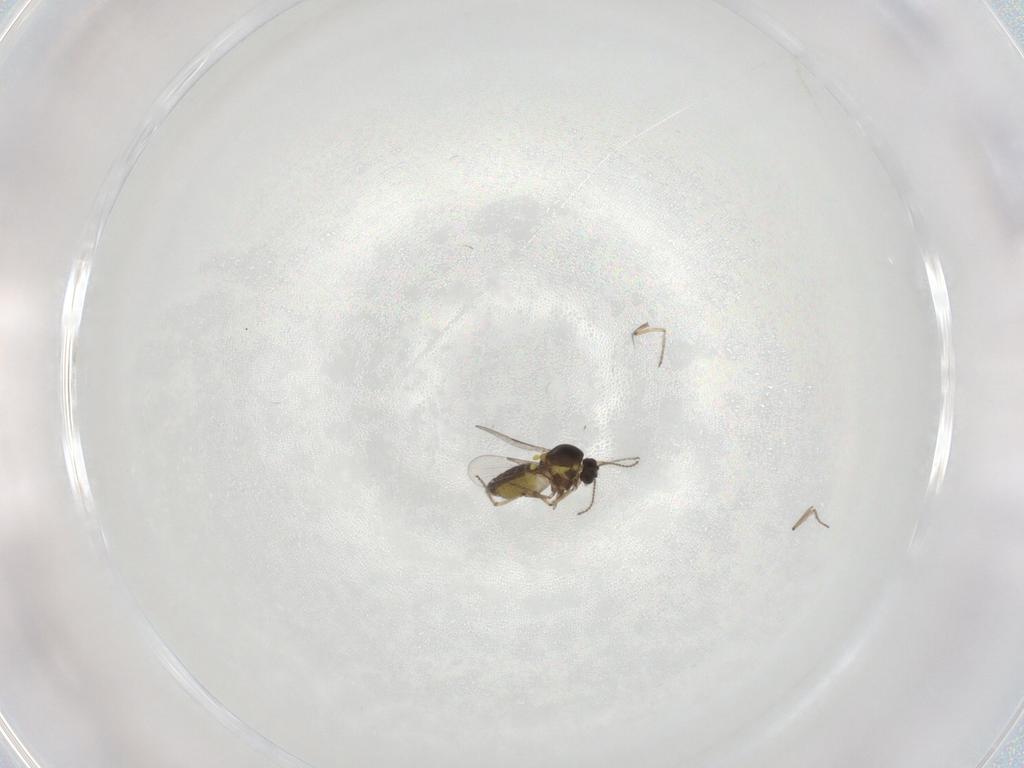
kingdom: Animalia
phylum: Arthropoda
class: Insecta
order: Diptera
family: Ceratopogonidae
